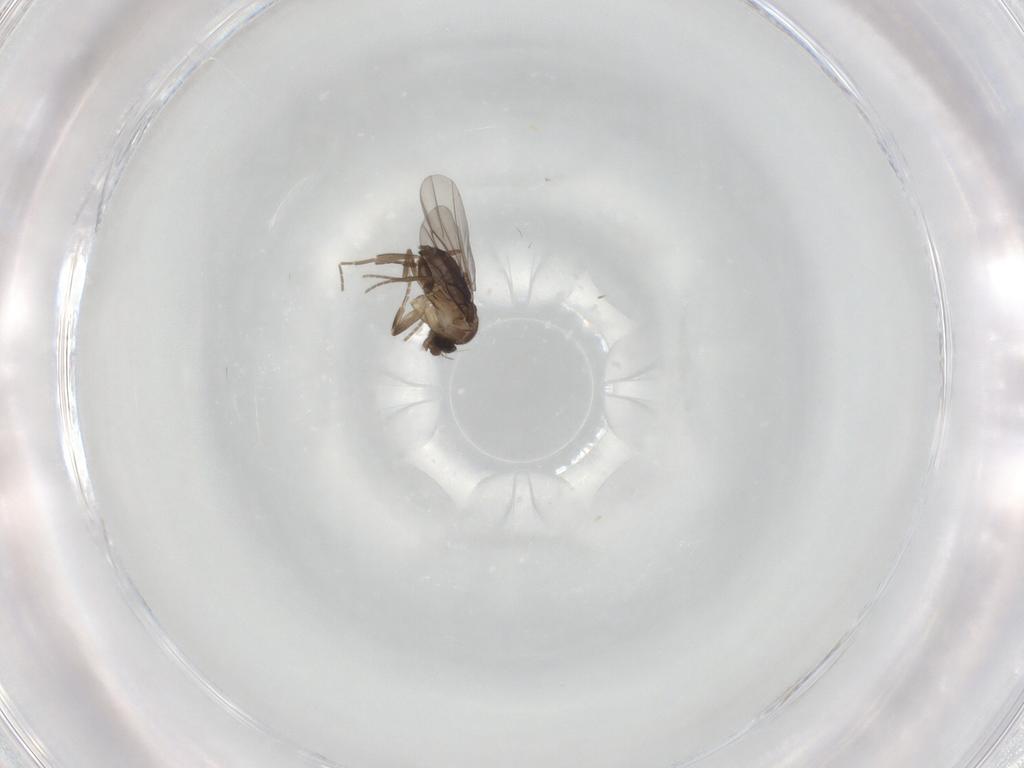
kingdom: Animalia
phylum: Arthropoda
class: Insecta
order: Diptera
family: Cecidomyiidae
